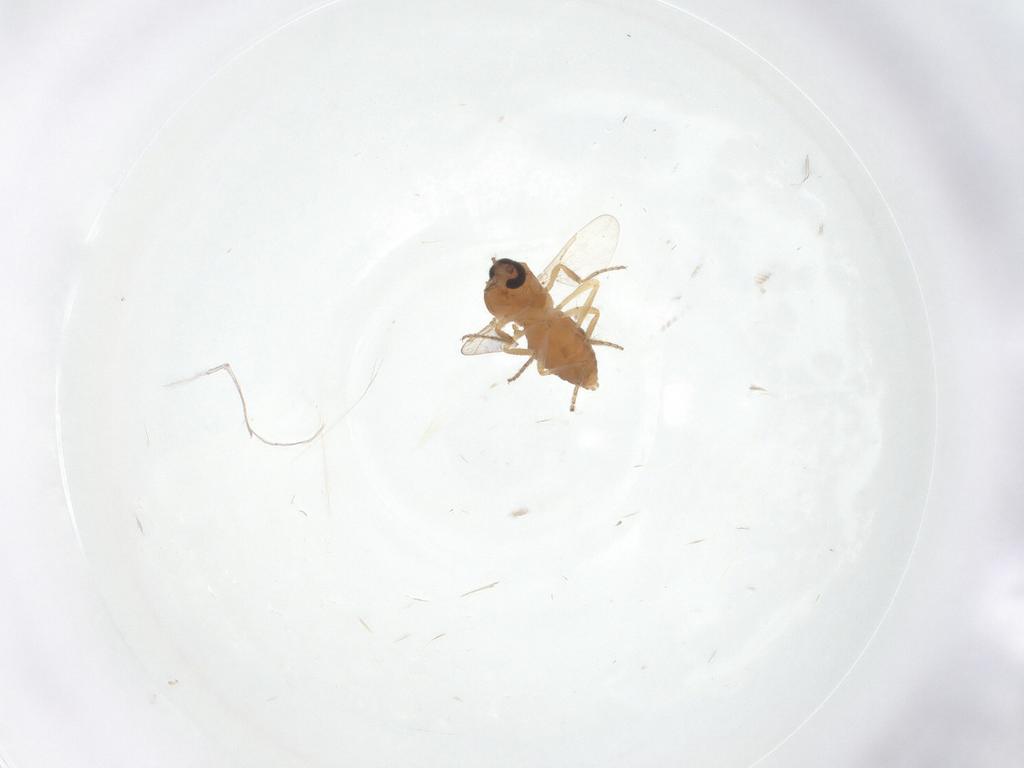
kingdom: Animalia
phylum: Arthropoda
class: Insecta
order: Diptera
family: Ceratopogonidae
